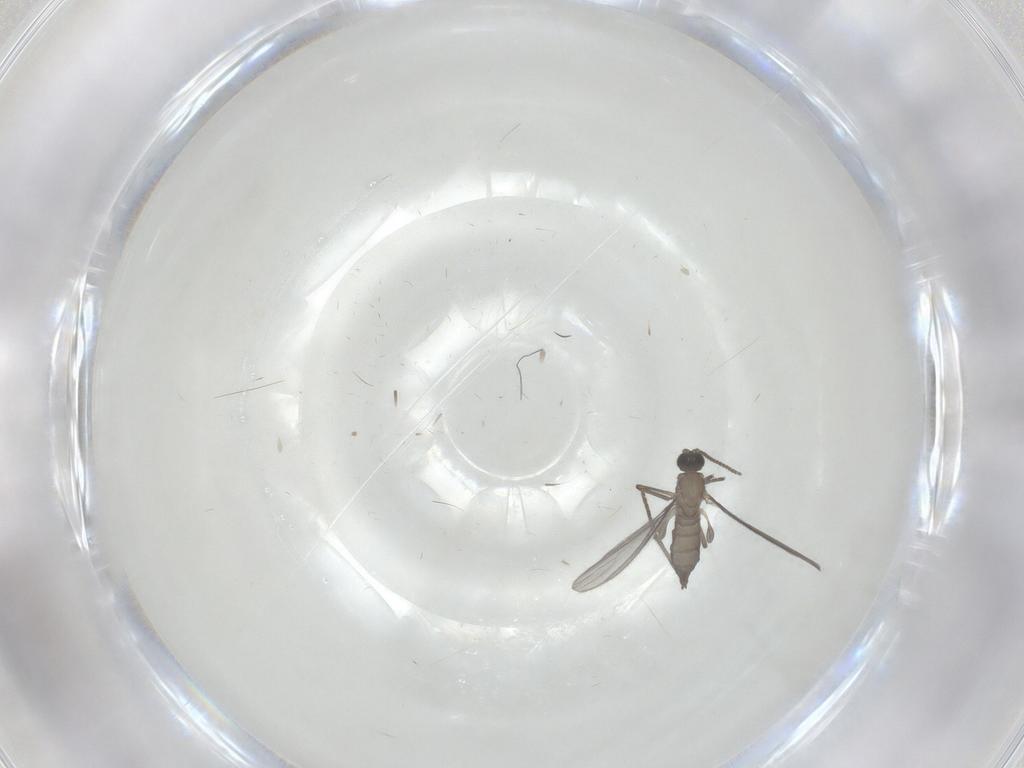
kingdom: Animalia
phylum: Arthropoda
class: Insecta
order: Diptera
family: Sciaridae
